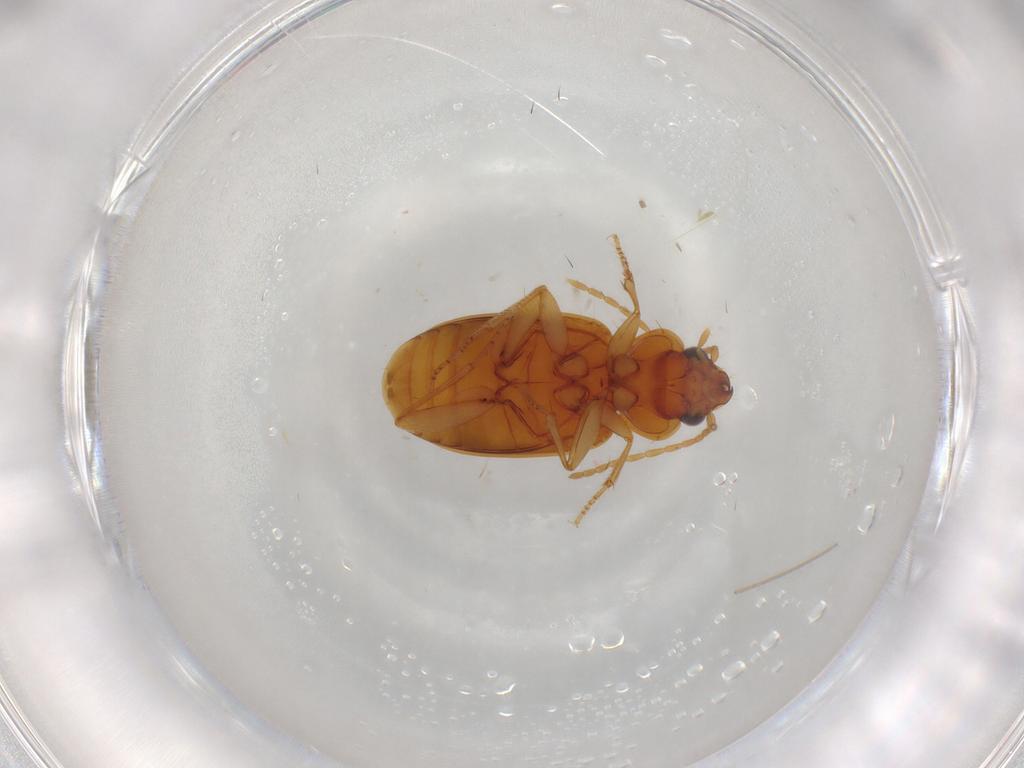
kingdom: Animalia
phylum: Arthropoda
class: Insecta
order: Coleoptera
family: Carabidae
